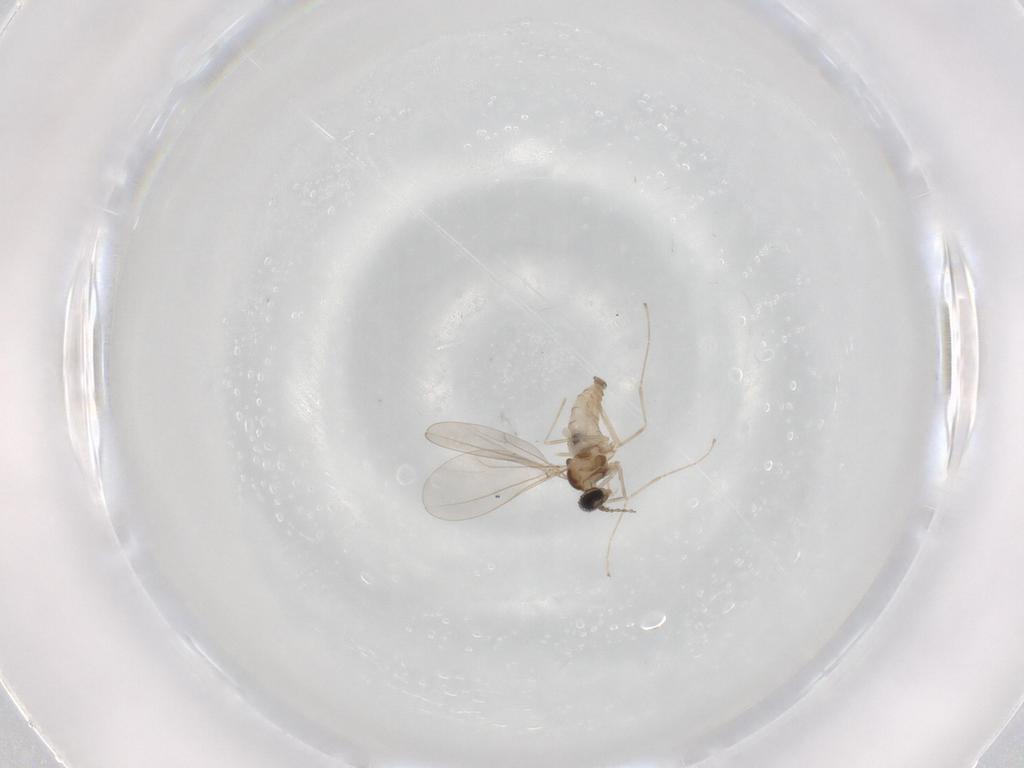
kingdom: Animalia
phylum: Arthropoda
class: Insecta
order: Diptera
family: Cecidomyiidae
